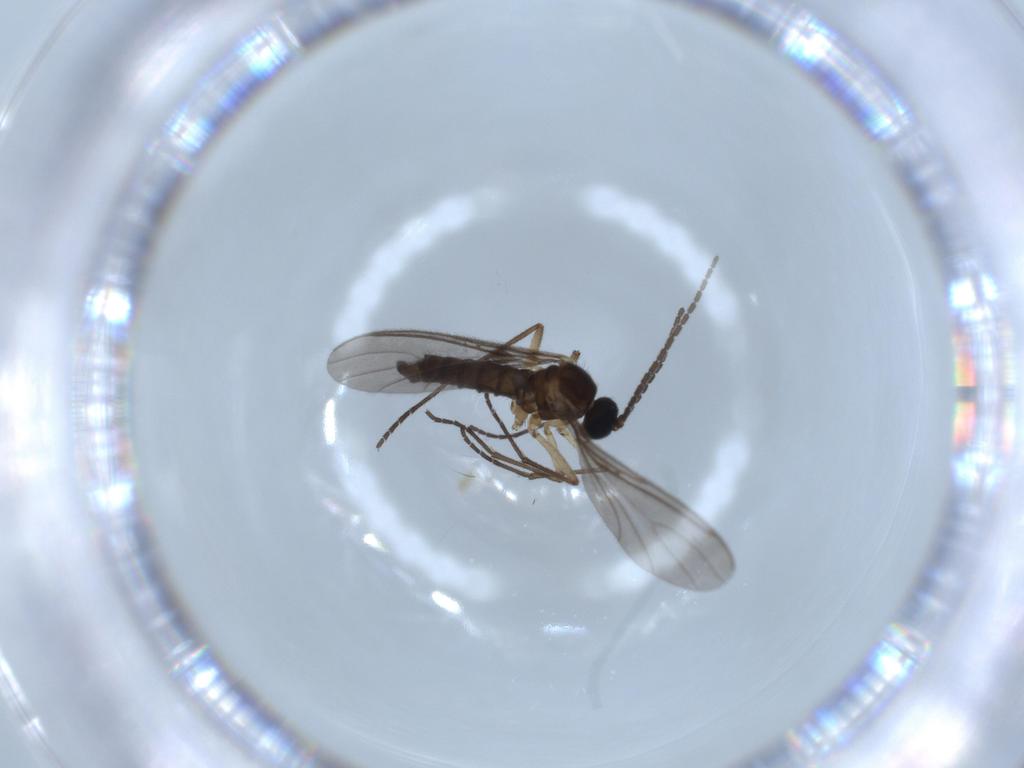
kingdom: Animalia
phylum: Arthropoda
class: Insecta
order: Diptera
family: Sciaridae
